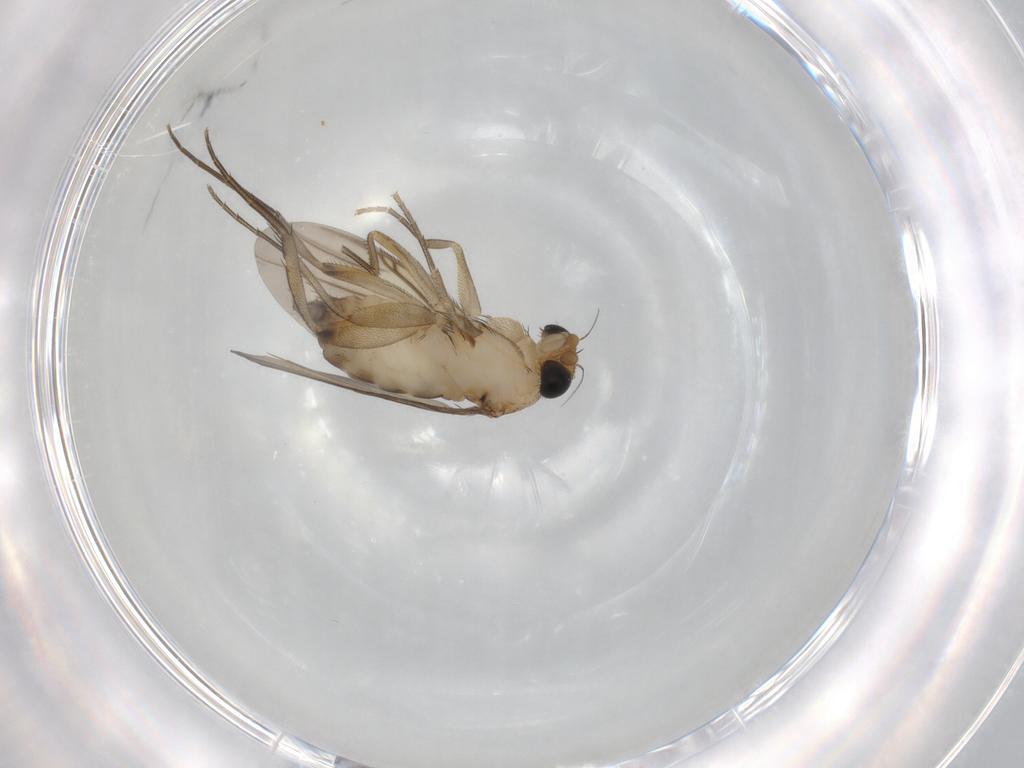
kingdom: Animalia
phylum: Arthropoda
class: Insecta
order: Diptera
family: Phoridae
